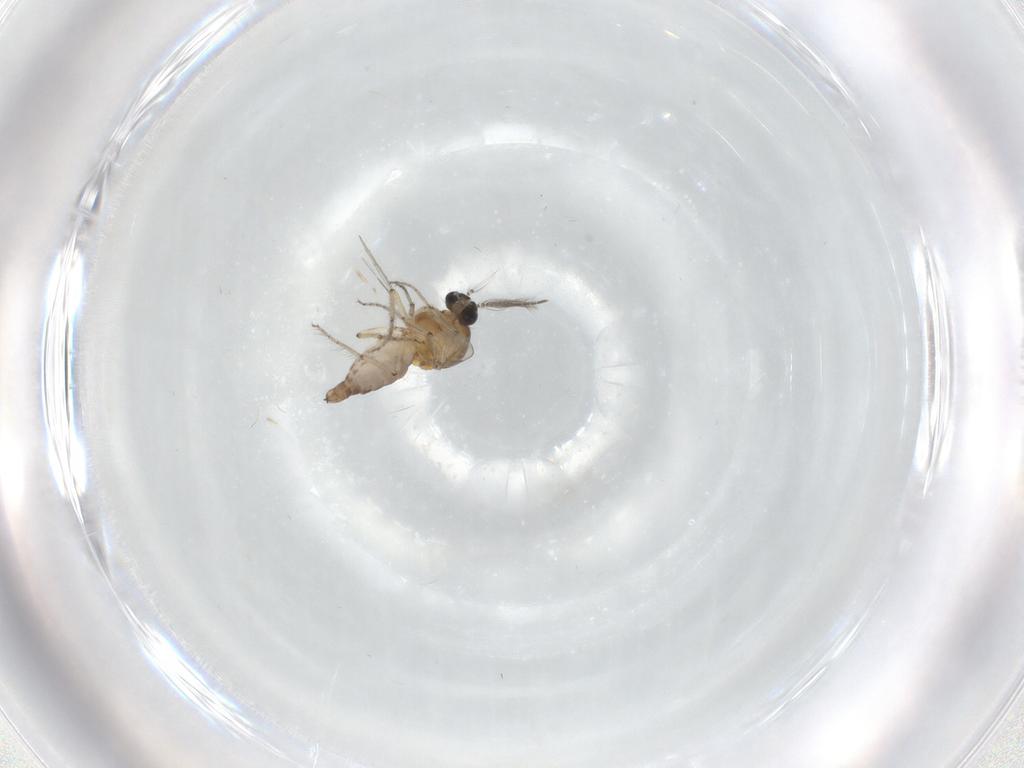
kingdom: Animalia
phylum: Arthropoda
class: Insecta
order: Diptera
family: Ceratopogonidae
